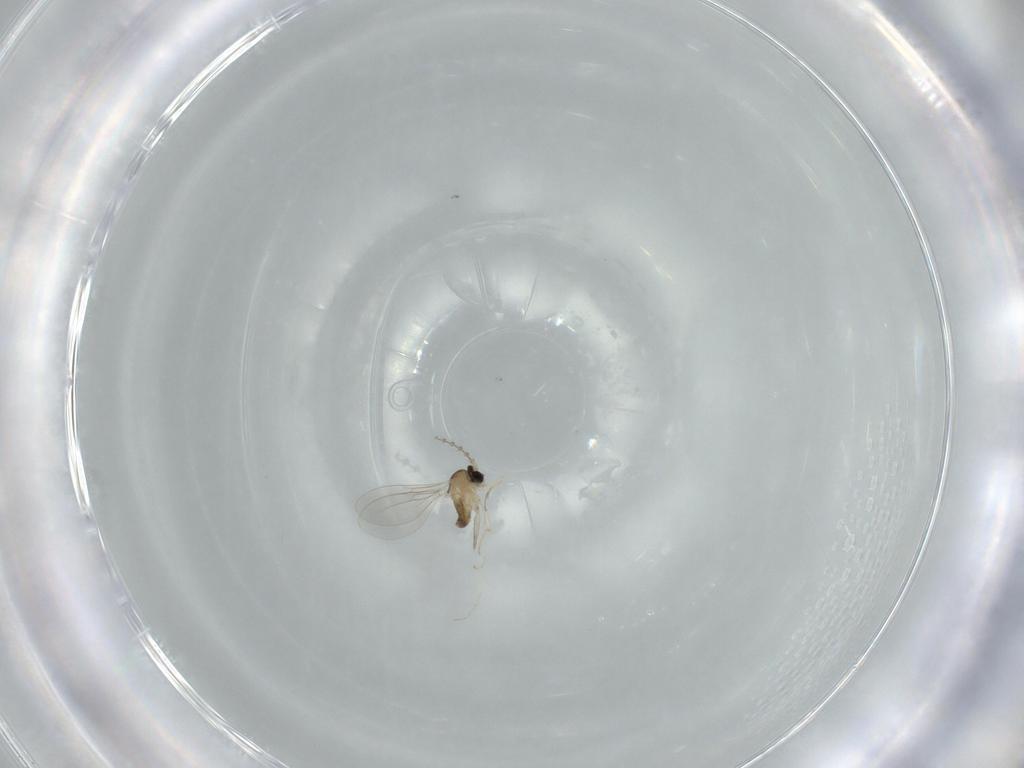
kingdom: Animalia
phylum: Arthropoda
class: Insecta
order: Diptera
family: Cecidomyiidae
